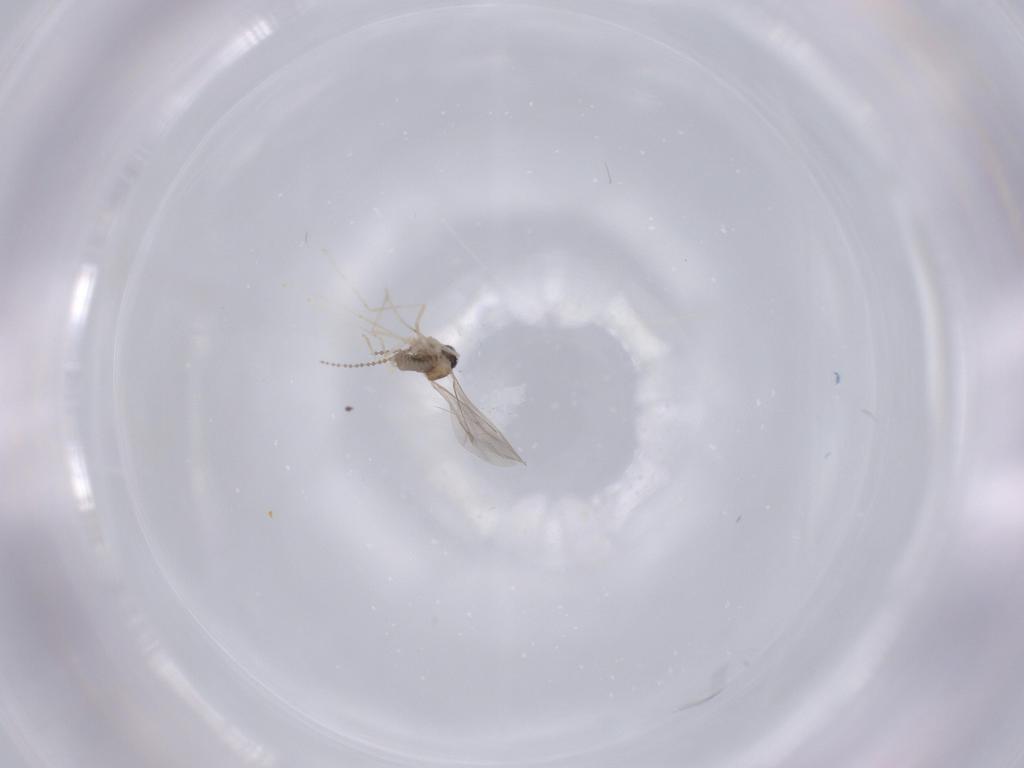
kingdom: Animalia
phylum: Arthropoda
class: Insecta
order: Diptera
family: Cecidomyiidae
